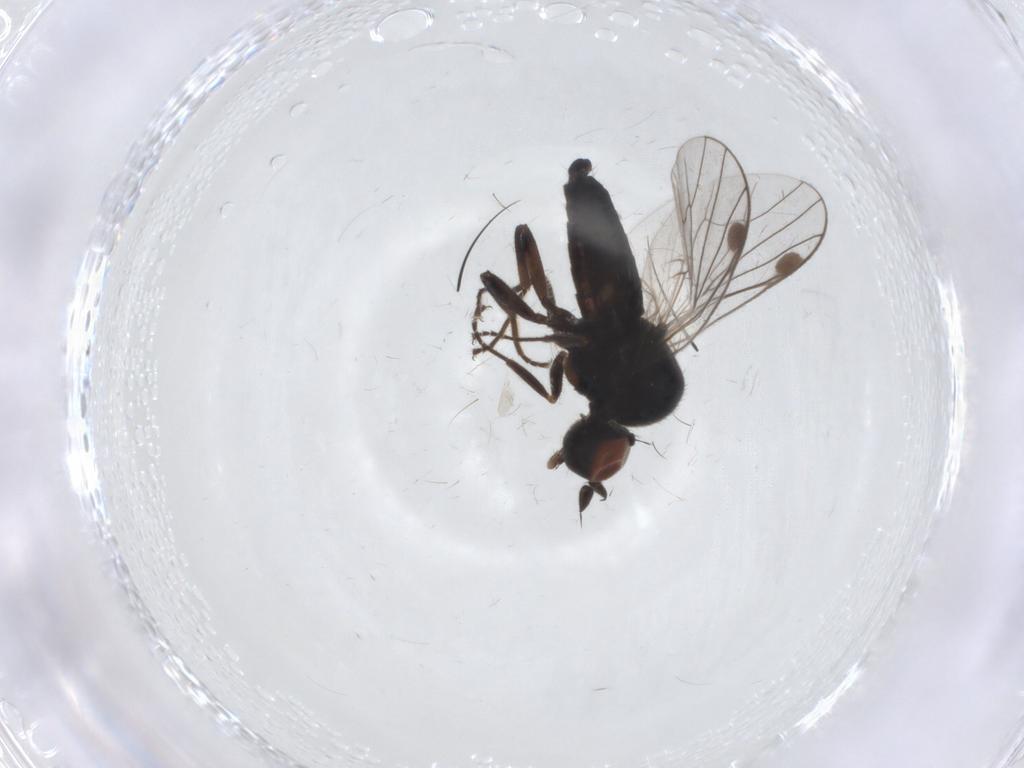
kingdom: Animalia
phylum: Arthropoda
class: Insecta
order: Diptera
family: Muscidae
